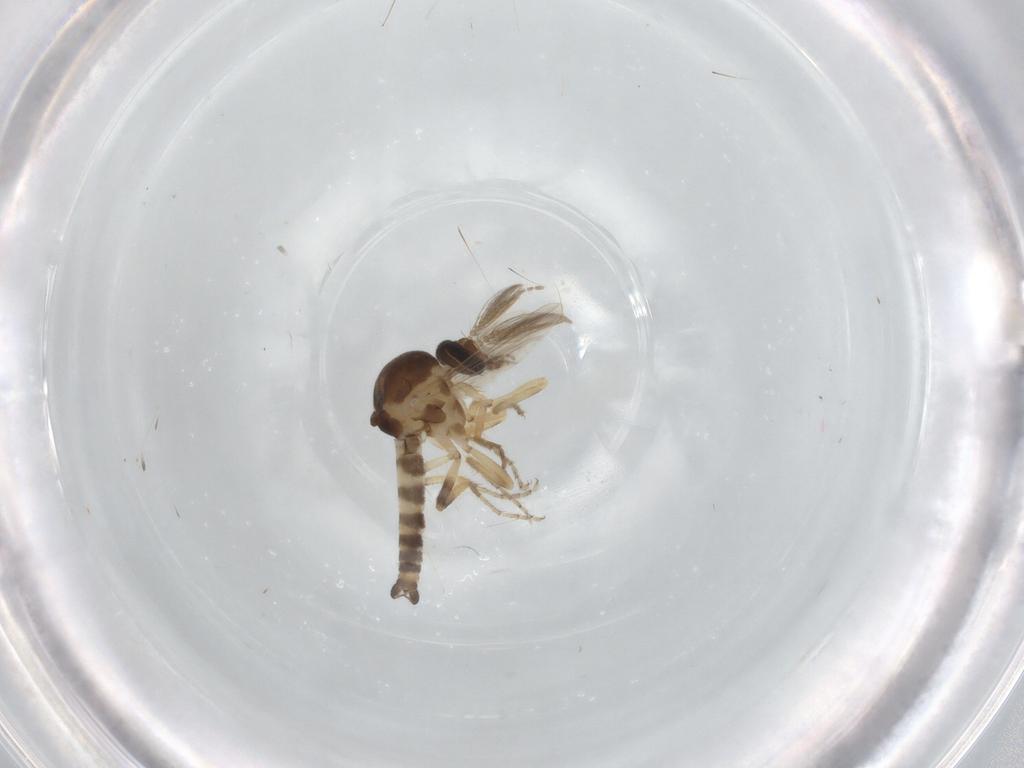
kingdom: Animalia
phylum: Arthropoda
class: Insecta
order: Diptera
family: Ceratopogonidae
